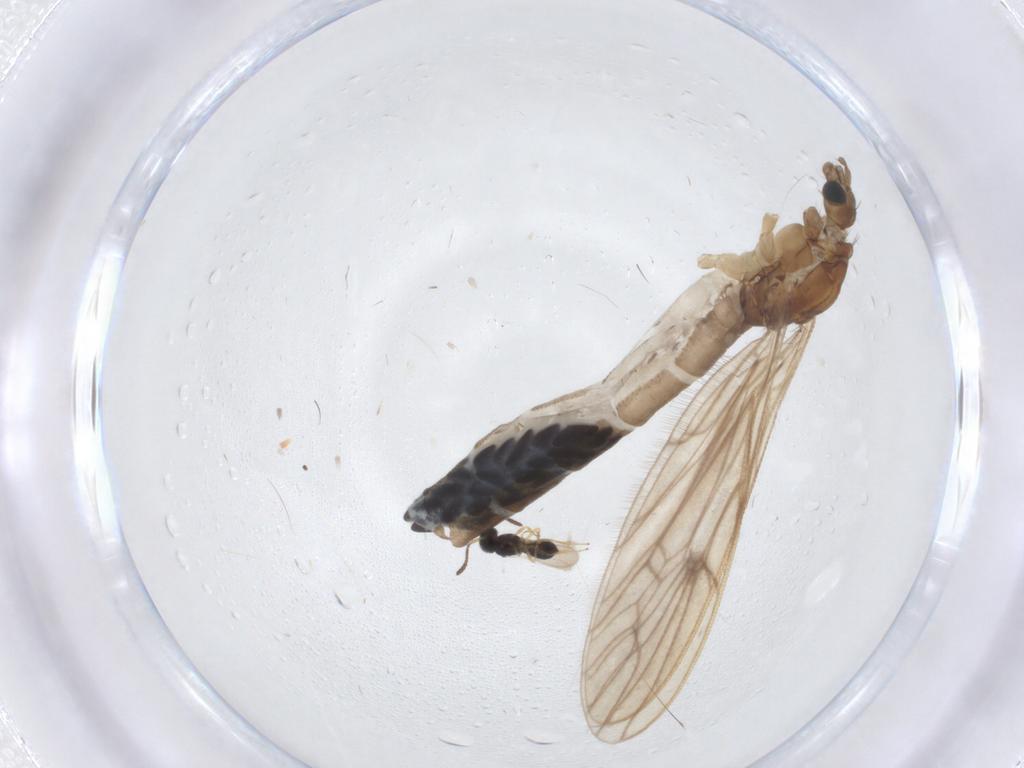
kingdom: Animalia
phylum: Arthropoda
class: Insecta
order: Diptera
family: Limoniidae
